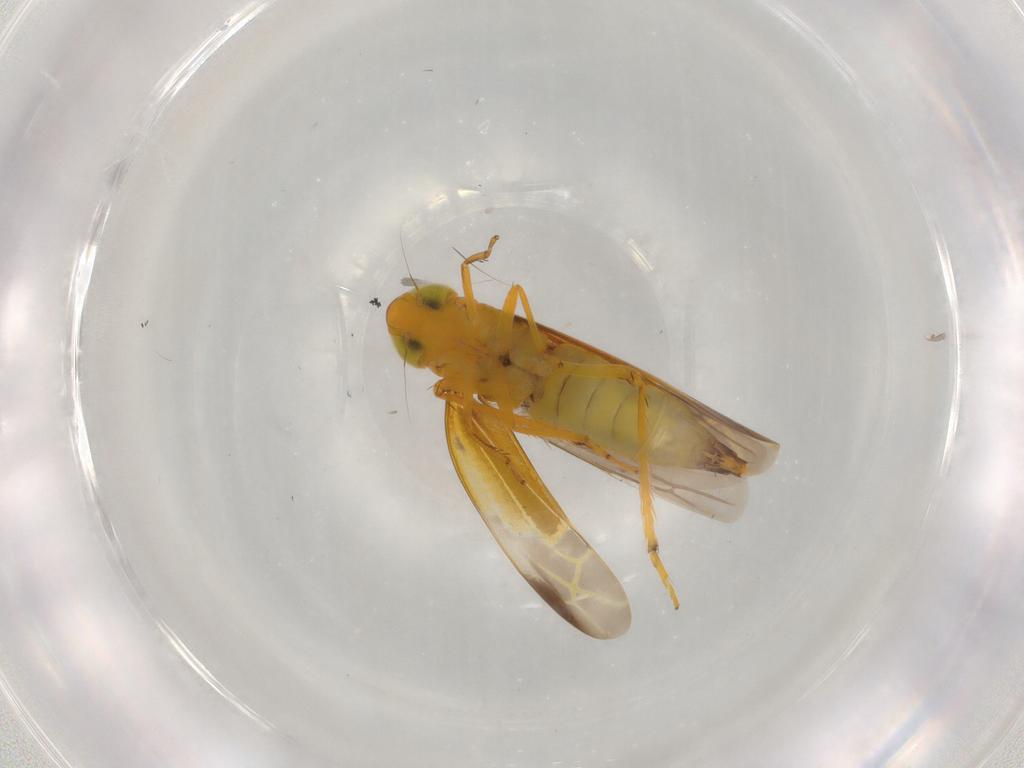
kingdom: Animalia
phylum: Arthropoda
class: Insecta
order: Hemiptera
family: Cicadellidae
